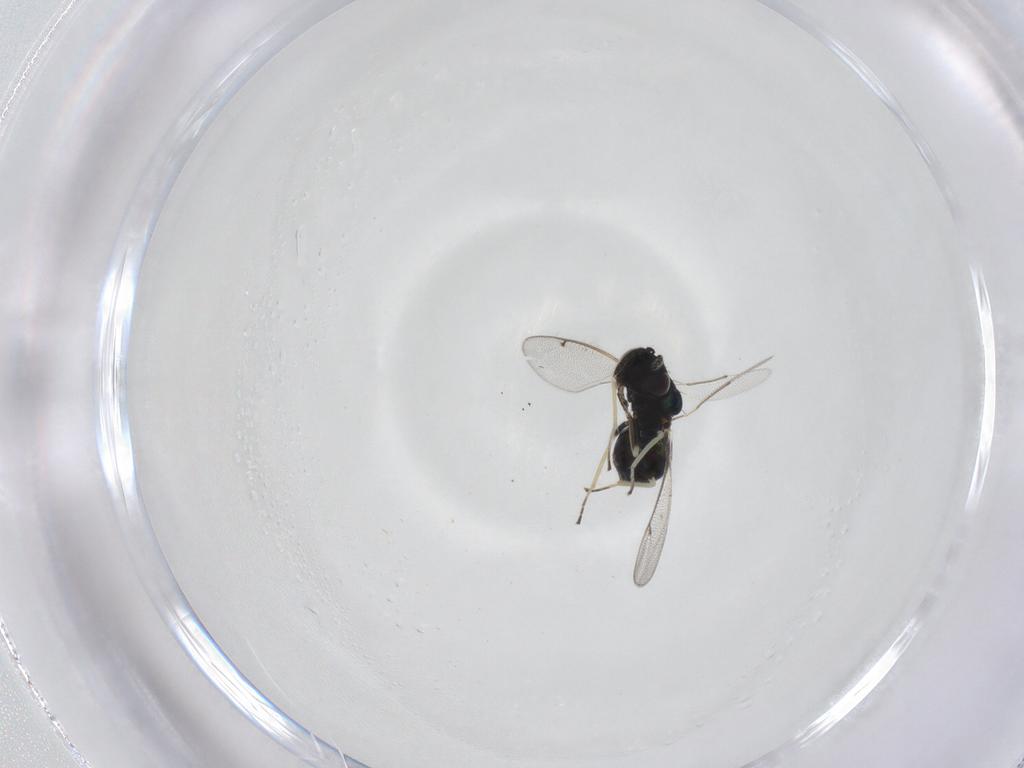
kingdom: Animalia
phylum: Arthropoda
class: Insecta
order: Hymenoptera
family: Eulophidae
